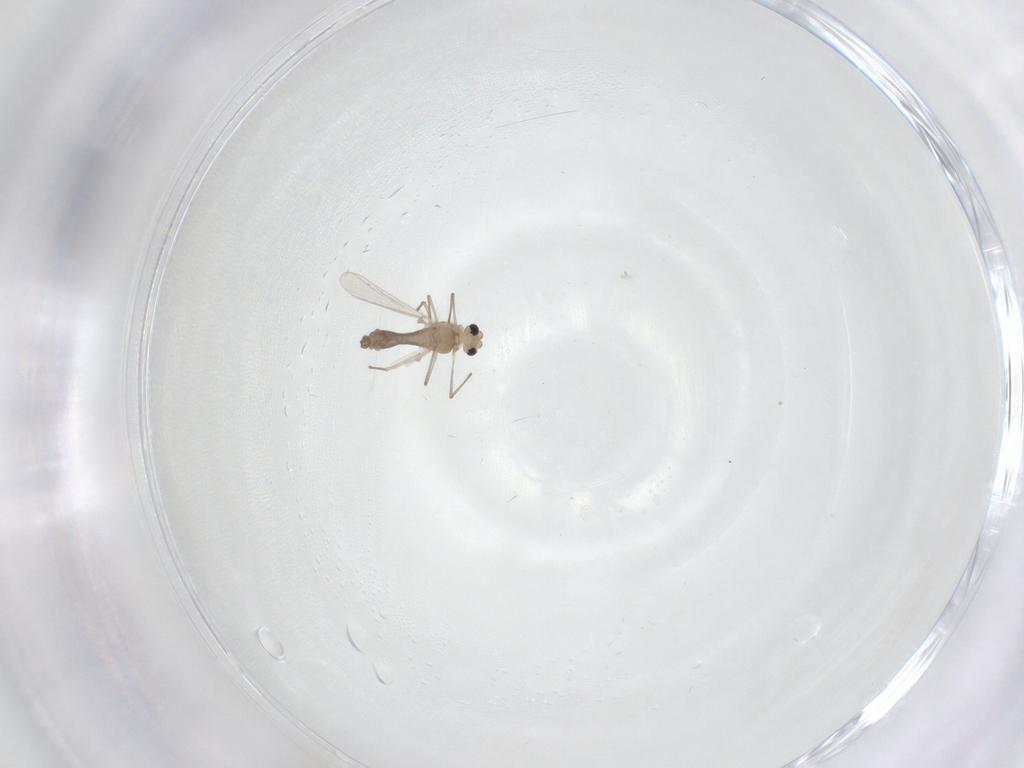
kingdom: Animalia
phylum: Arthropoda
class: Insecta
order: Diptera
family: Chironomidae
